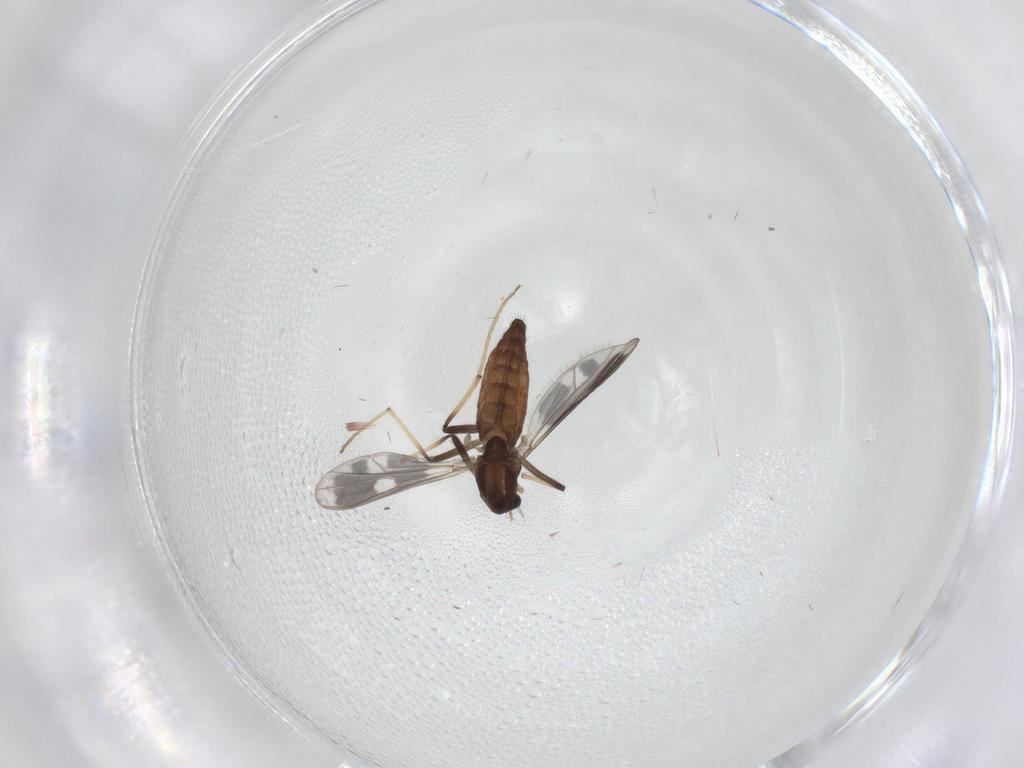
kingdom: Animalia
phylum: Arthropoda
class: Insecta
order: Diptera
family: Chironomidae
